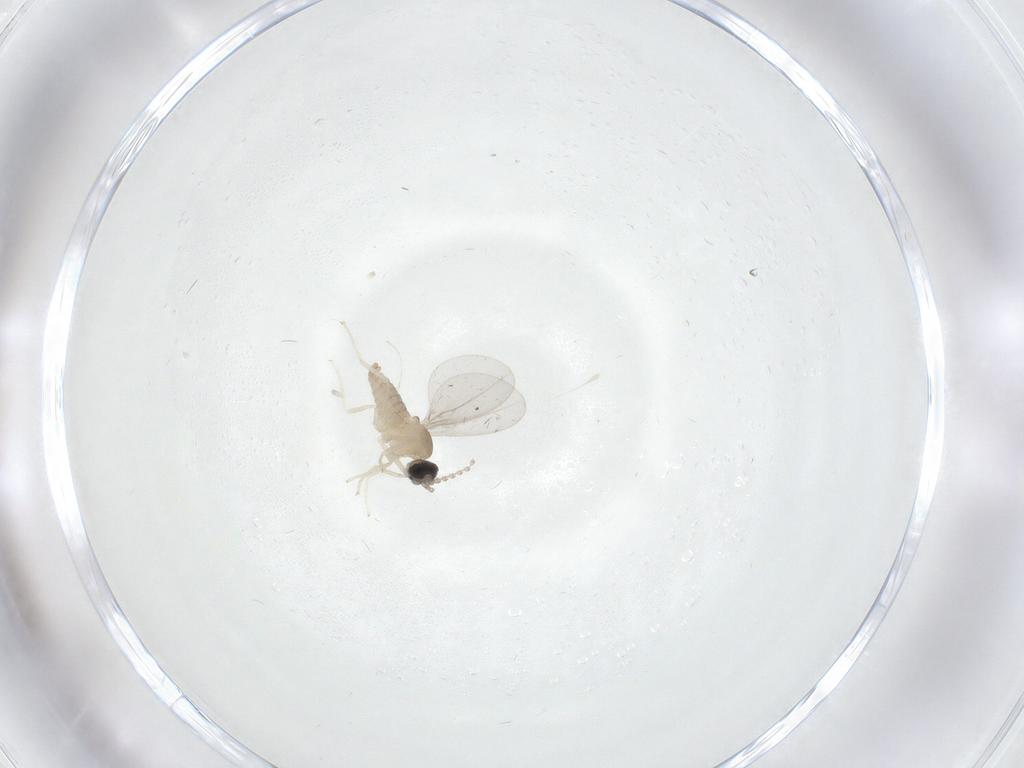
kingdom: Animalia
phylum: Arthropoda
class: Insecta
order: Diptera
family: Cecidomyiidae
